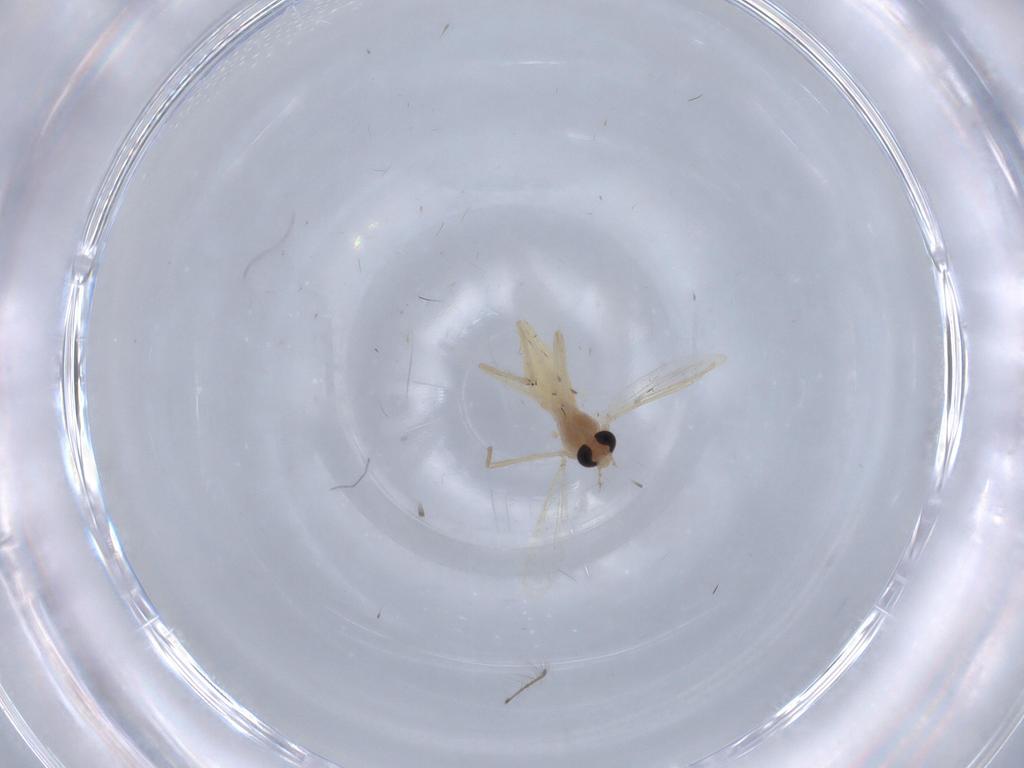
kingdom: Animalia
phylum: Arthropoda
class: Insecta
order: Diptera
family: Chironomidae
